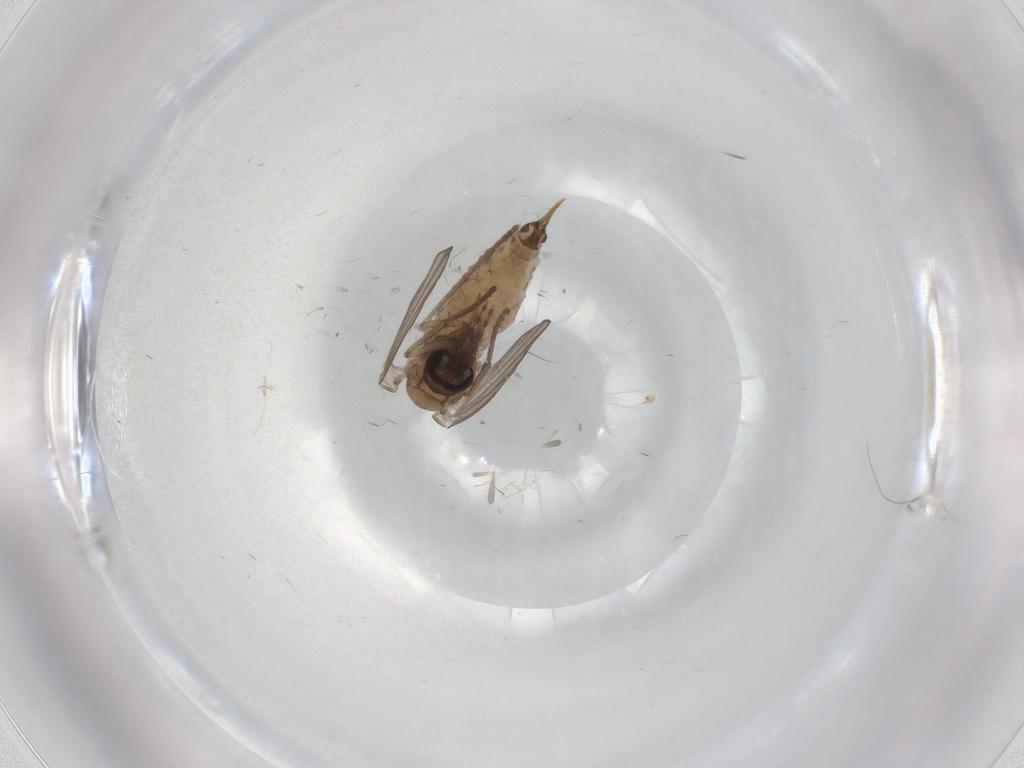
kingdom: Animalia
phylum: Arthropoda
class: Insecta
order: Diptera
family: Psychodidae
